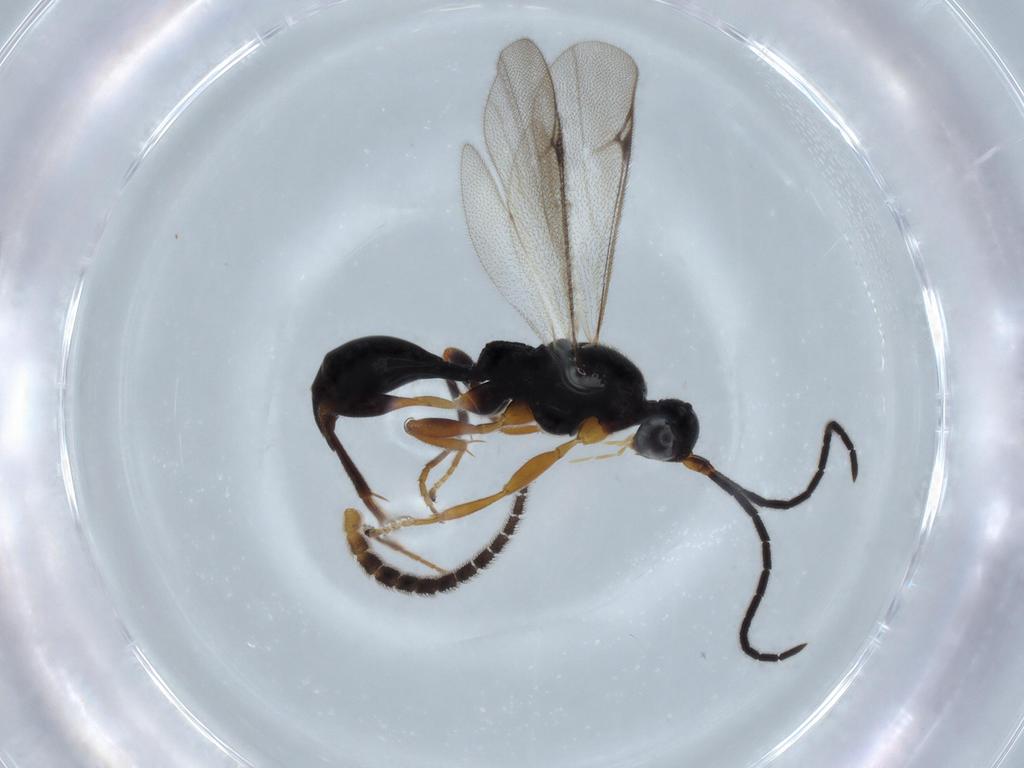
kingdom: Animalia
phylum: Arthropoda
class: Insecta
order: Hymenoptera
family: Proctotrupidae
